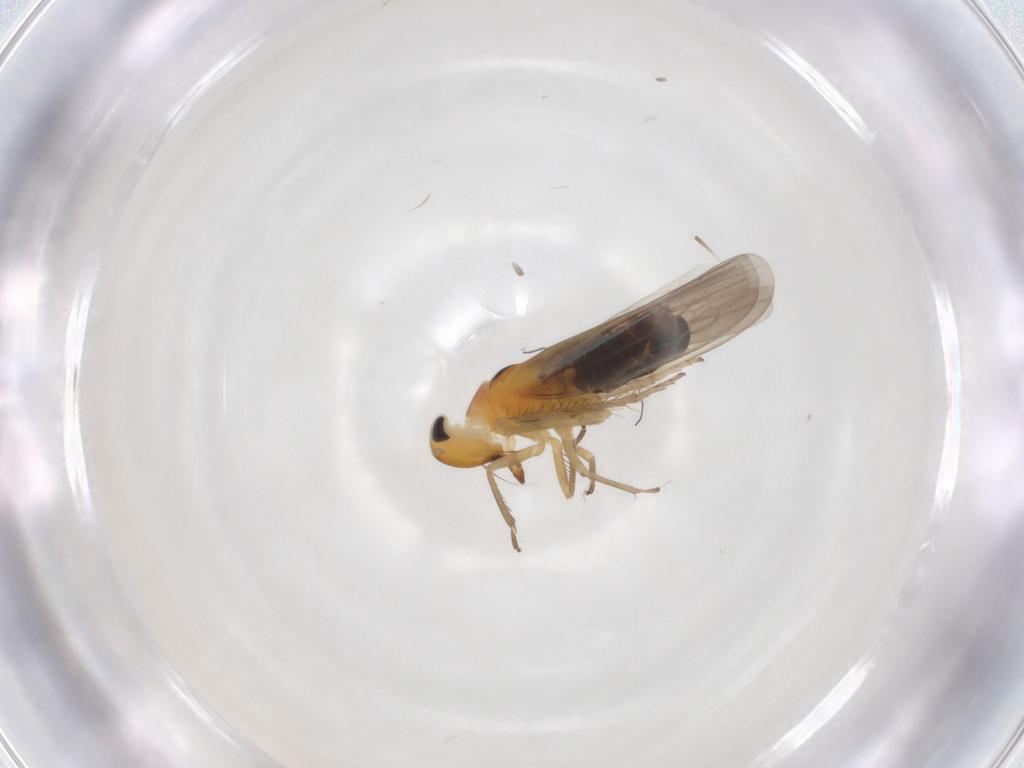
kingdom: Animalia
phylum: Arthropoda
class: Insecta
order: Hemiptera
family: Cicadellidae
